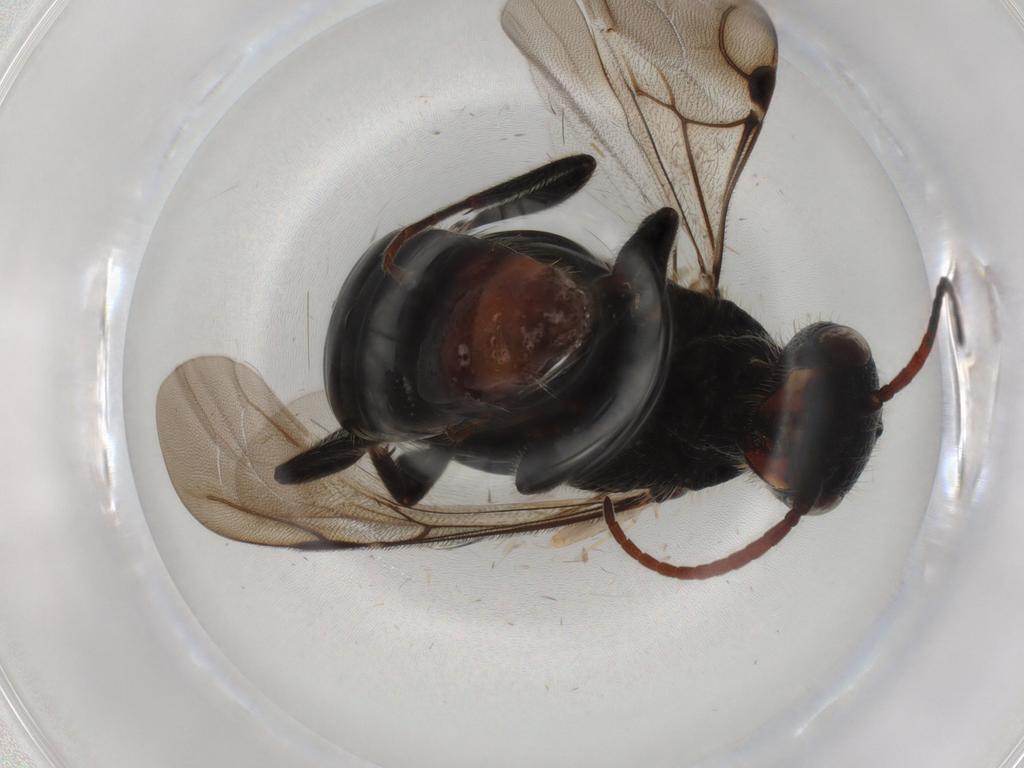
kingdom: Animalia
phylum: Arthropoda
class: Insecta
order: Hymenoptera
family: Bethylidae
